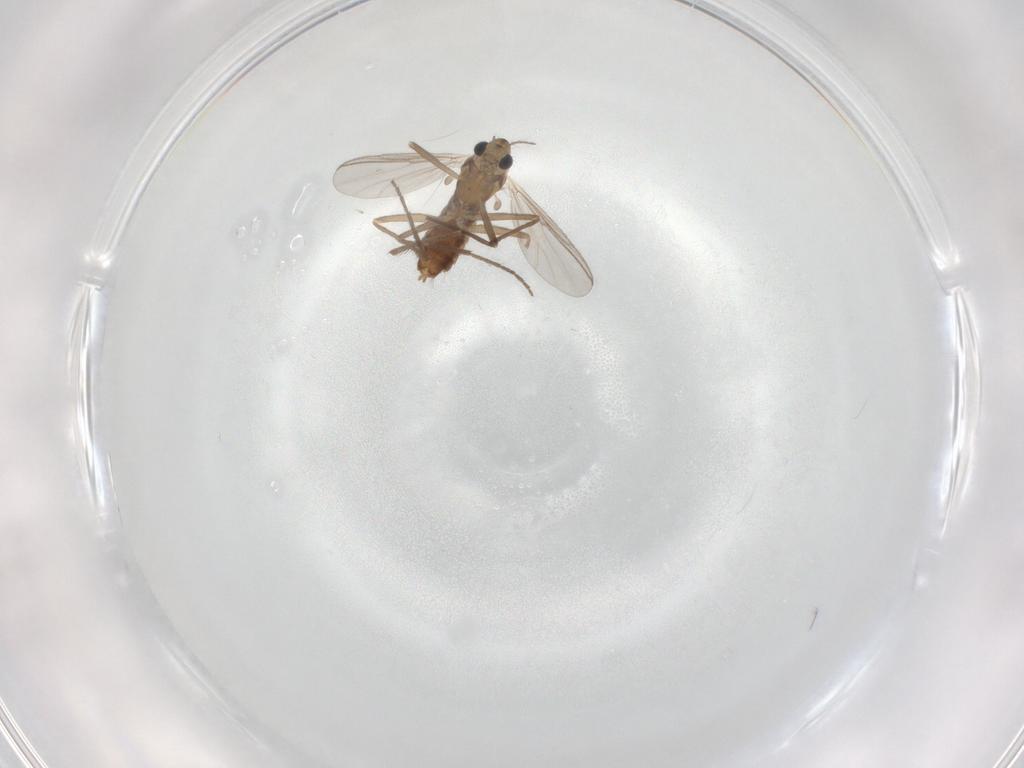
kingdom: Animalia
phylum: Arthropoda
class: Insecta
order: Diptera
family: Chironomidae
